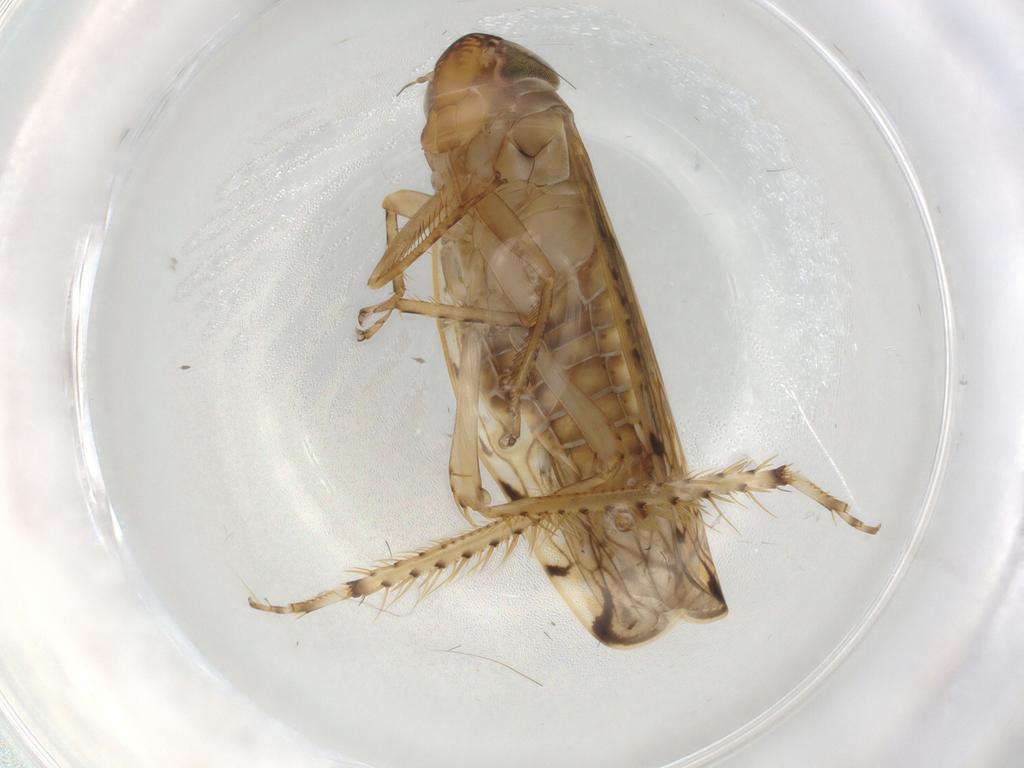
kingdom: Animalia
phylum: Arthropoda
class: Insecta
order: Hemiptera
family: Cicadellidae
